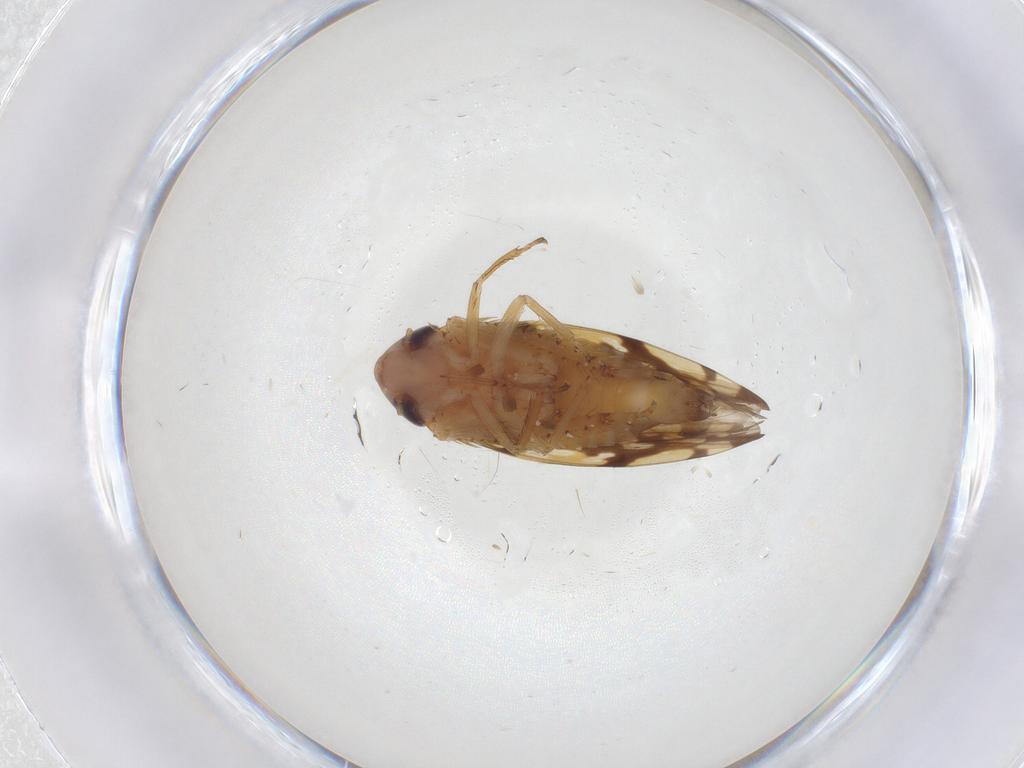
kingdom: Animalia
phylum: Arthropoda
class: Insecta
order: Hemiptera
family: Cicadellidae
